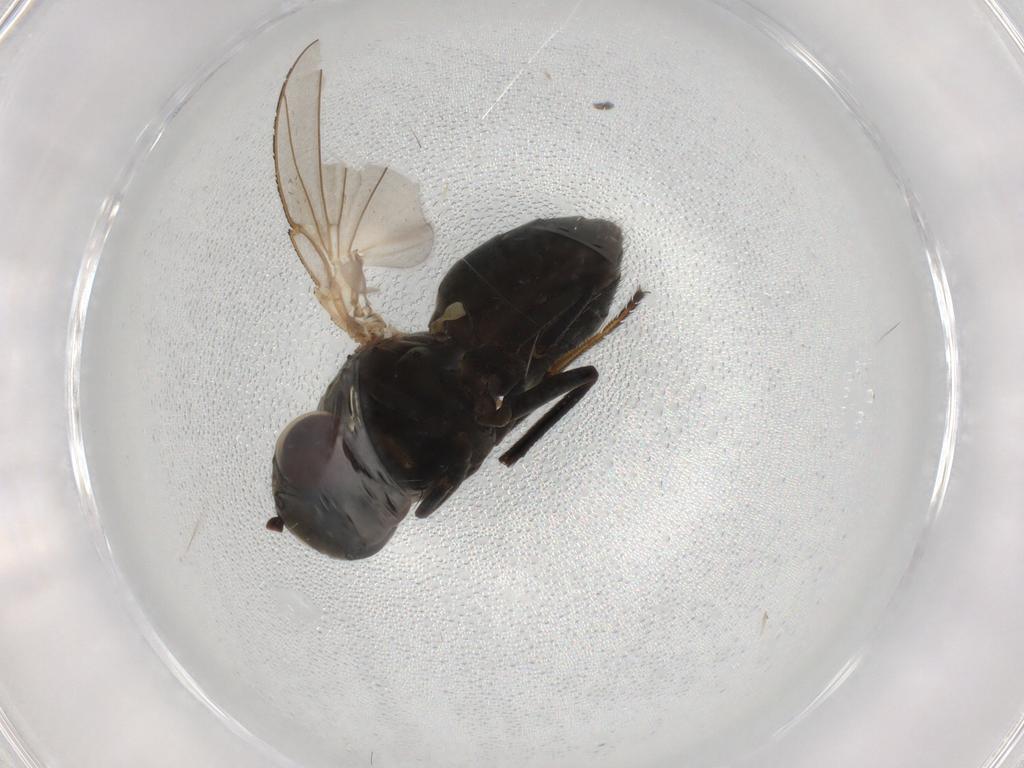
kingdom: Animalia
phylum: Arthropoda
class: Insecta
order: Diptera
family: Ephydridae
